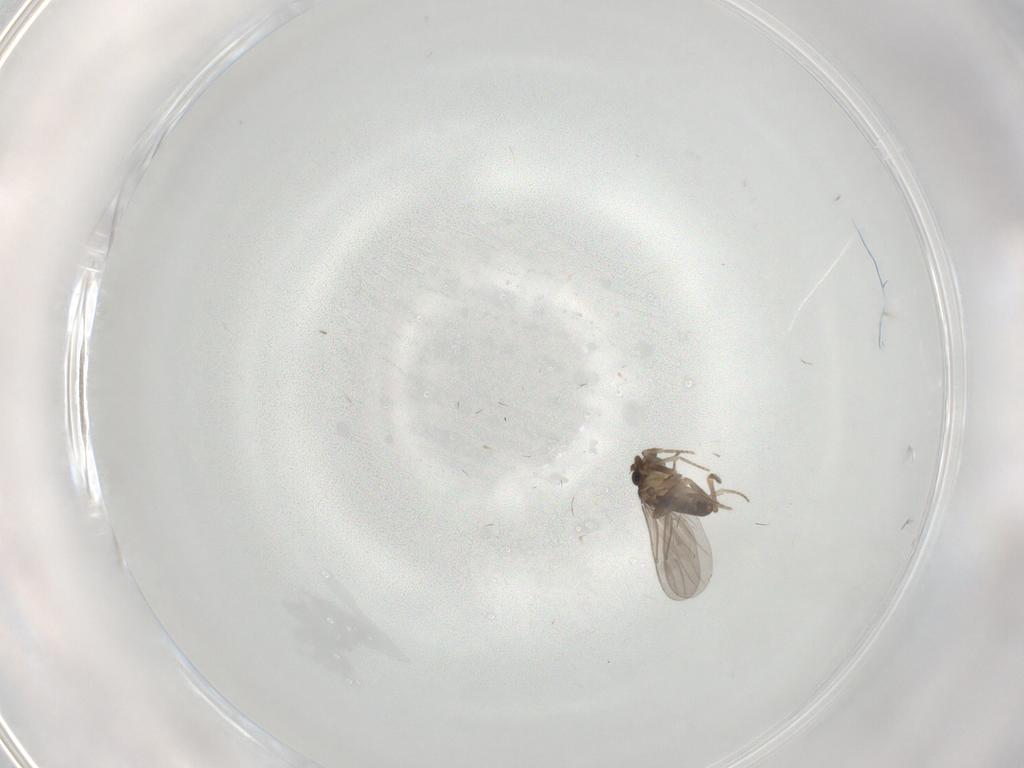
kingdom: Animalia
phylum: Arthropoda
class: Insecta
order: Diptera
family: Dolichopodidae
